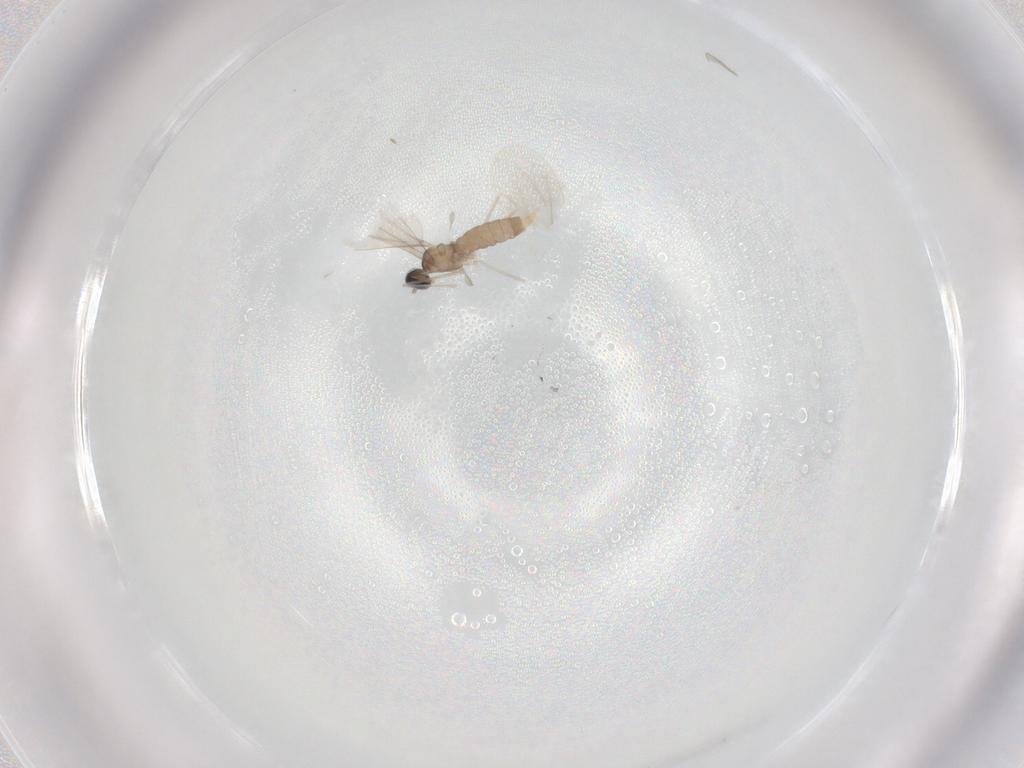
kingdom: Animalia
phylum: Arthropoda
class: Insecta
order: Diptera
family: Cecidomyiidae
